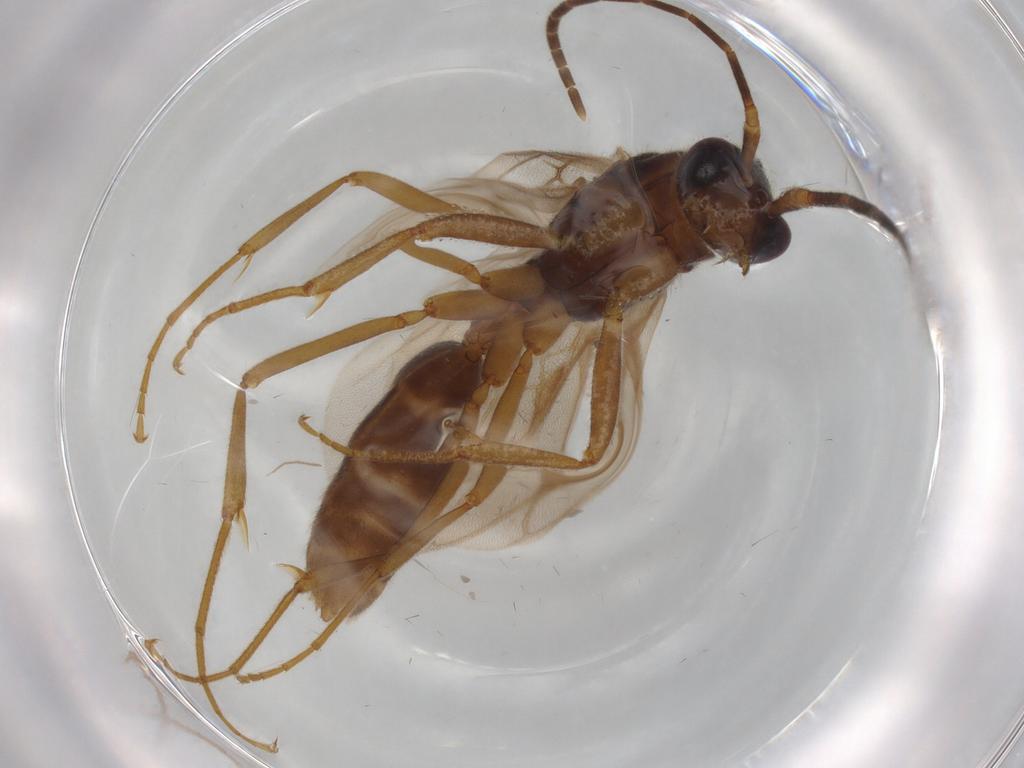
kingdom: Animalia
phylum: Arthropoda
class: Insecta
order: Hymenoptera
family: Formicidae
